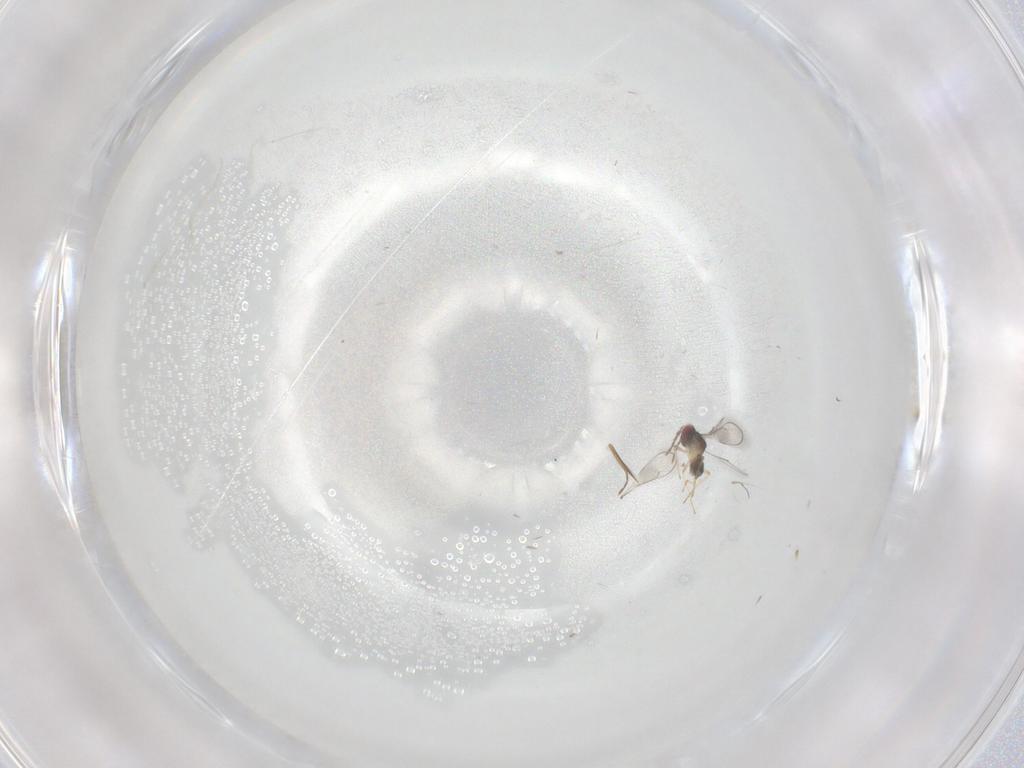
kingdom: Animalia
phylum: Arthropoda
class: Insecta
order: Hymenoptera
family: Eulophidae
